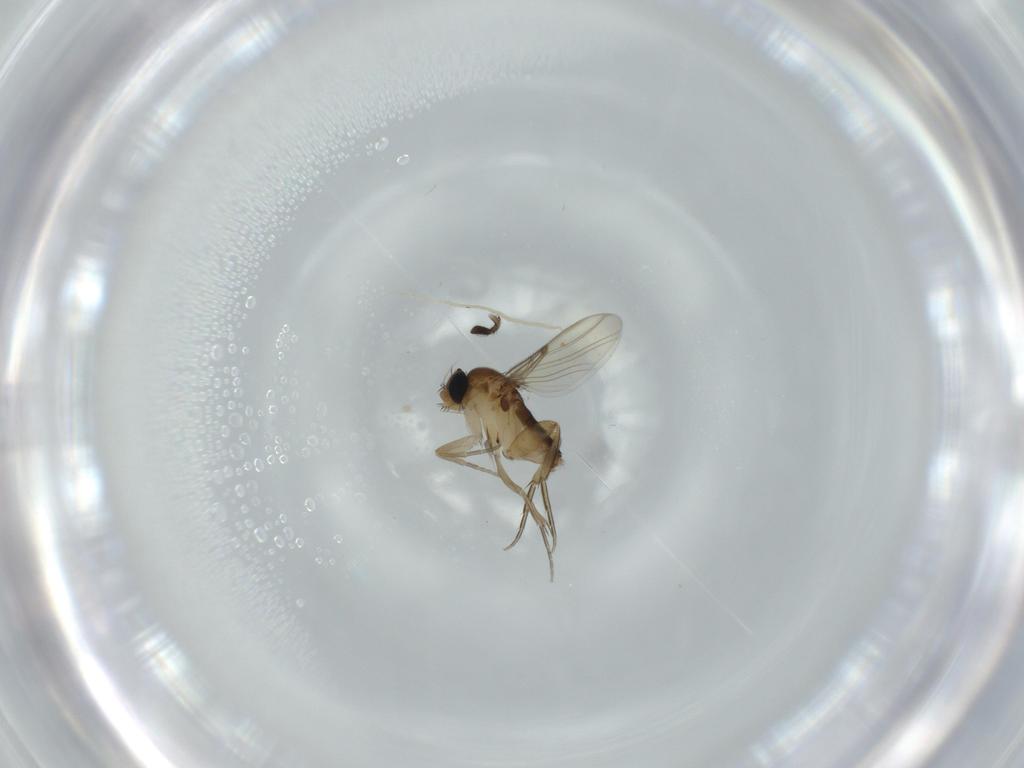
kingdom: Animalia
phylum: Arthropoda
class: Insecta
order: Diptera
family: Phoridae
